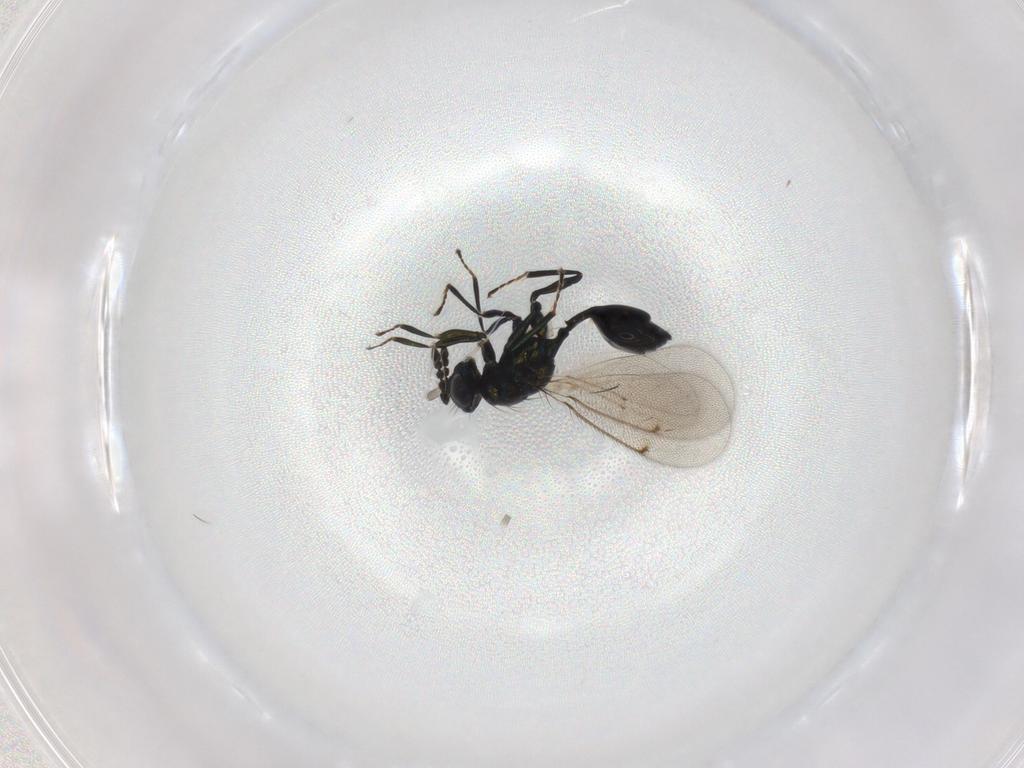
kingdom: Animalia
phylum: Arthropoda
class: Insecta
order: Hymenoptera
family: Eulophidae
